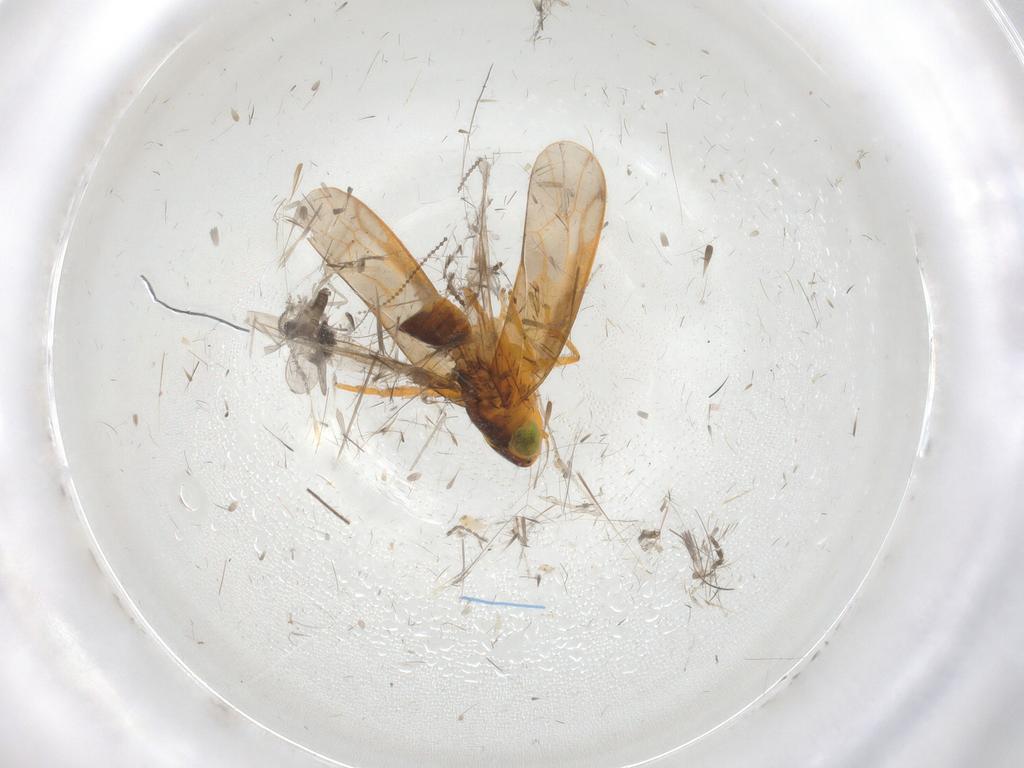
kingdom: Animalia
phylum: Arthropoda
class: Insecta
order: Diptera
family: Cecidomyiidae
